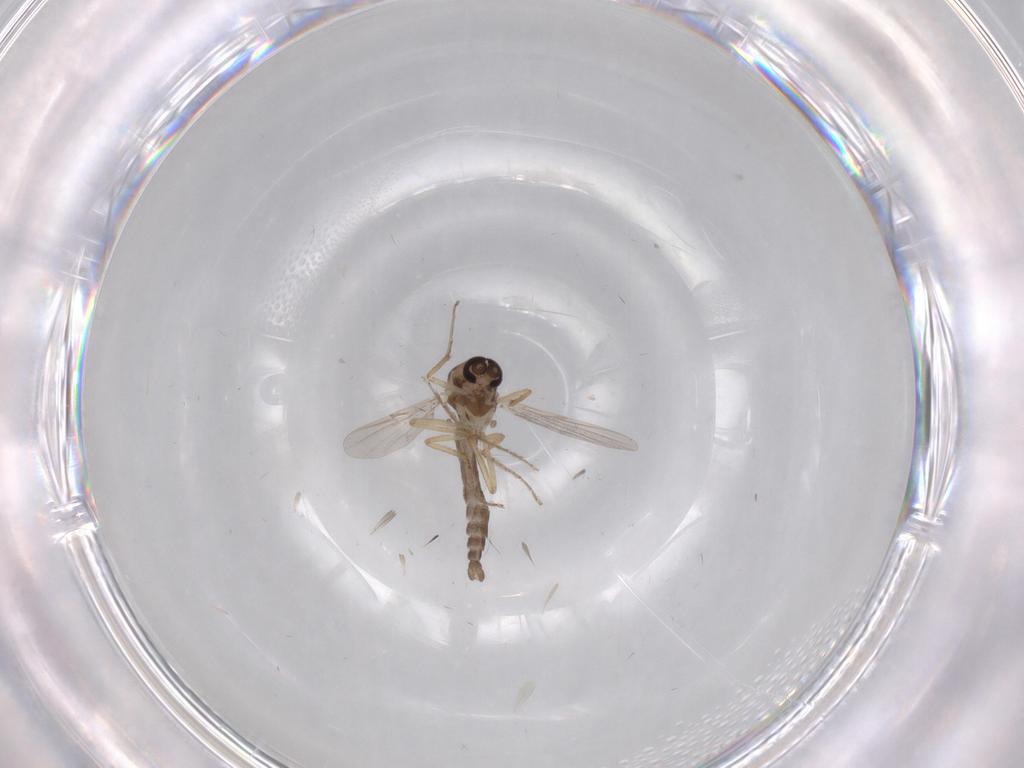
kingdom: Animalia
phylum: Arthropoda
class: Insecta
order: Diptera
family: Ceratopogonidae
